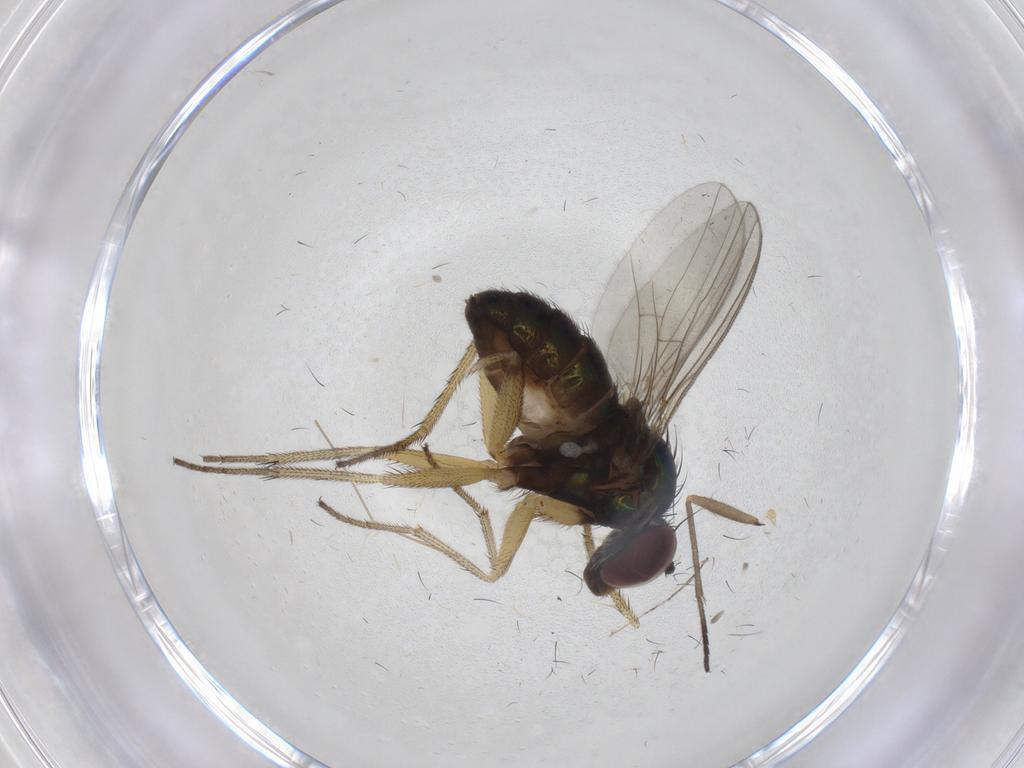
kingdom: Animalia
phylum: Arthropoda
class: Insecta
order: Diptera
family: Sciaridae
